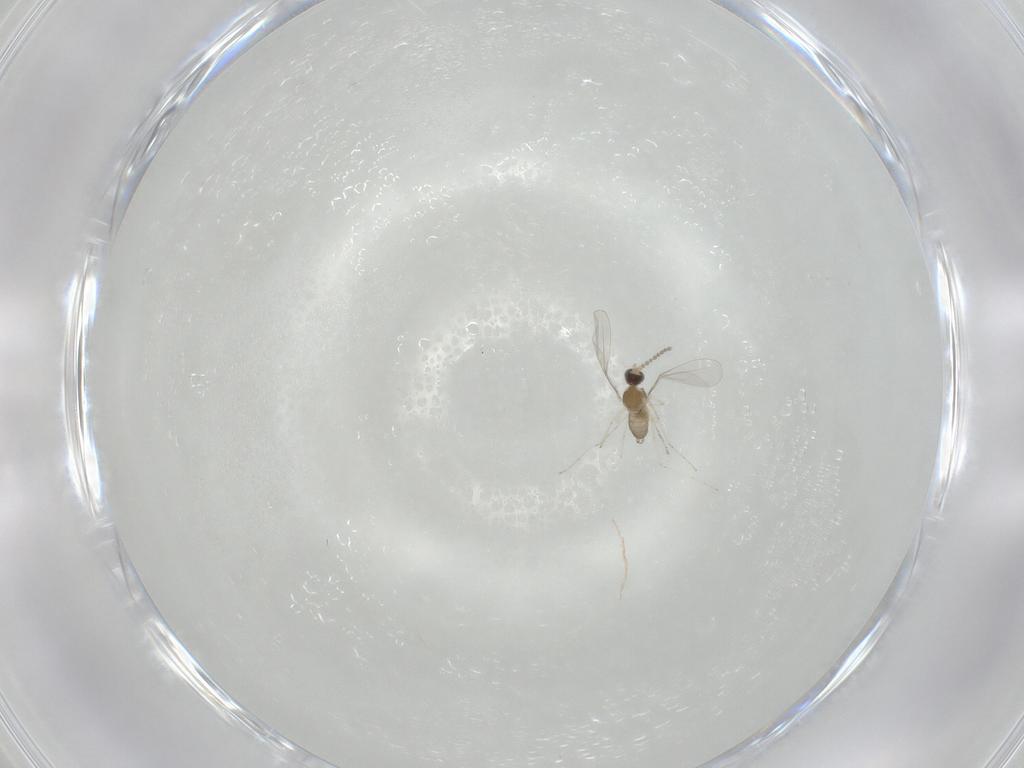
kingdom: Animalia
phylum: Arthropoda
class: Insecta
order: Diptera
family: Cecidomyiidae
